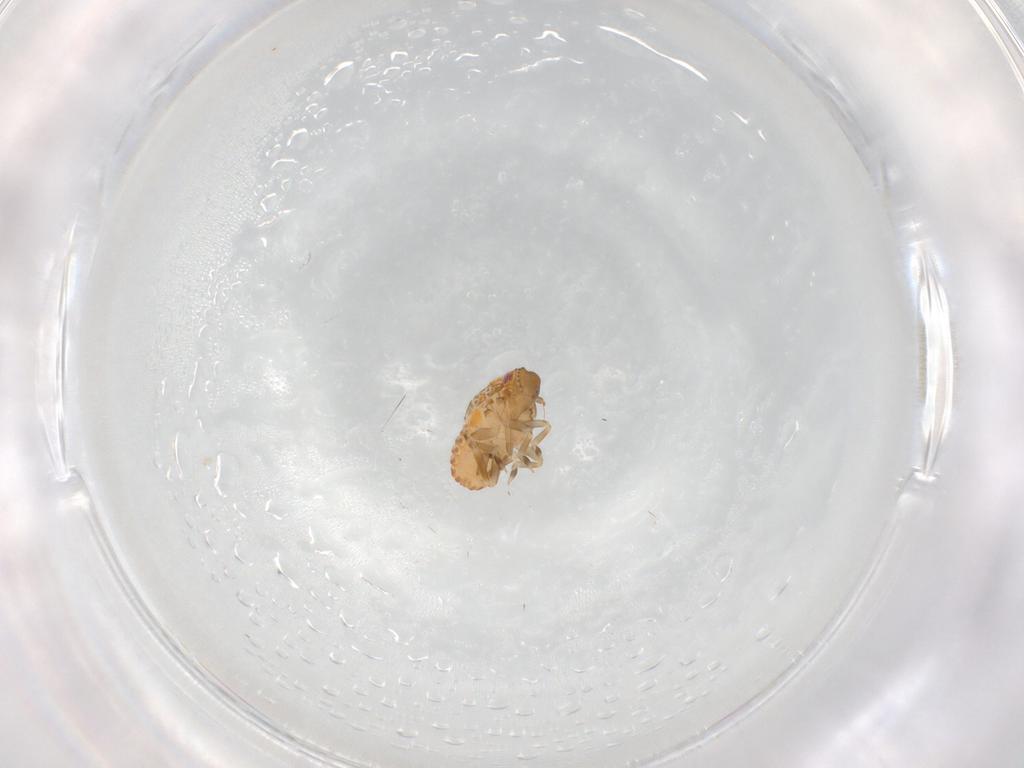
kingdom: Animalia
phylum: Arthropoda
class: Insecta
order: Hemiptera
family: Flatidae
